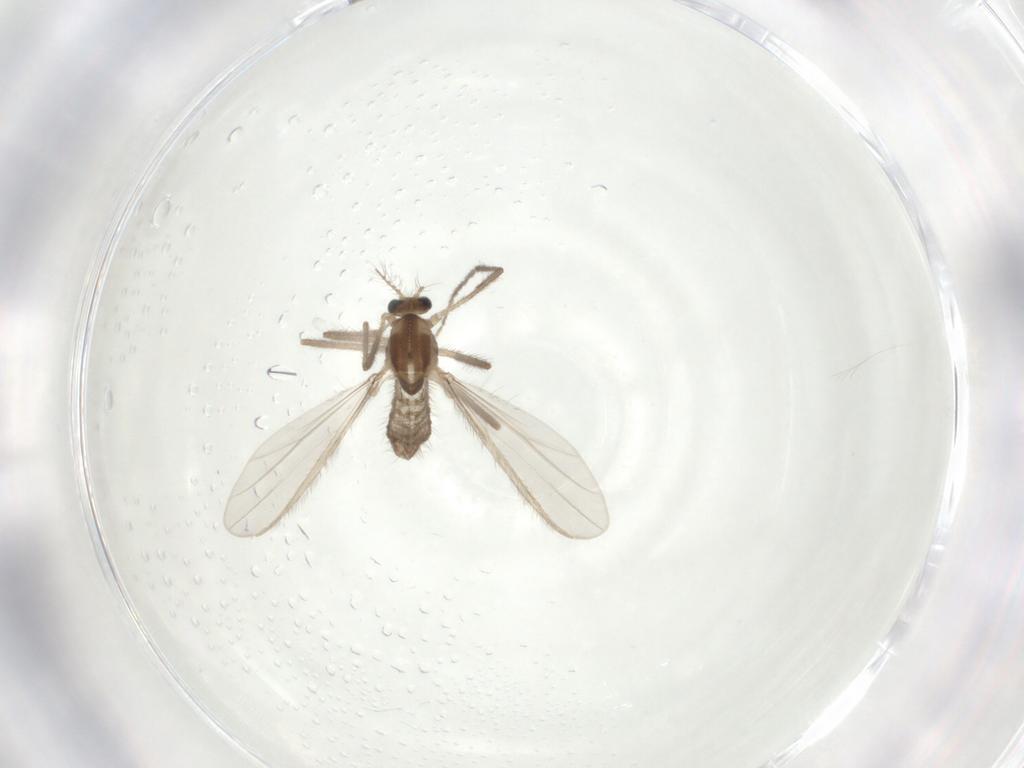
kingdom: Animalia
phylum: Arthropoda
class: Insecta
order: Diptera
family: Chironomidae
